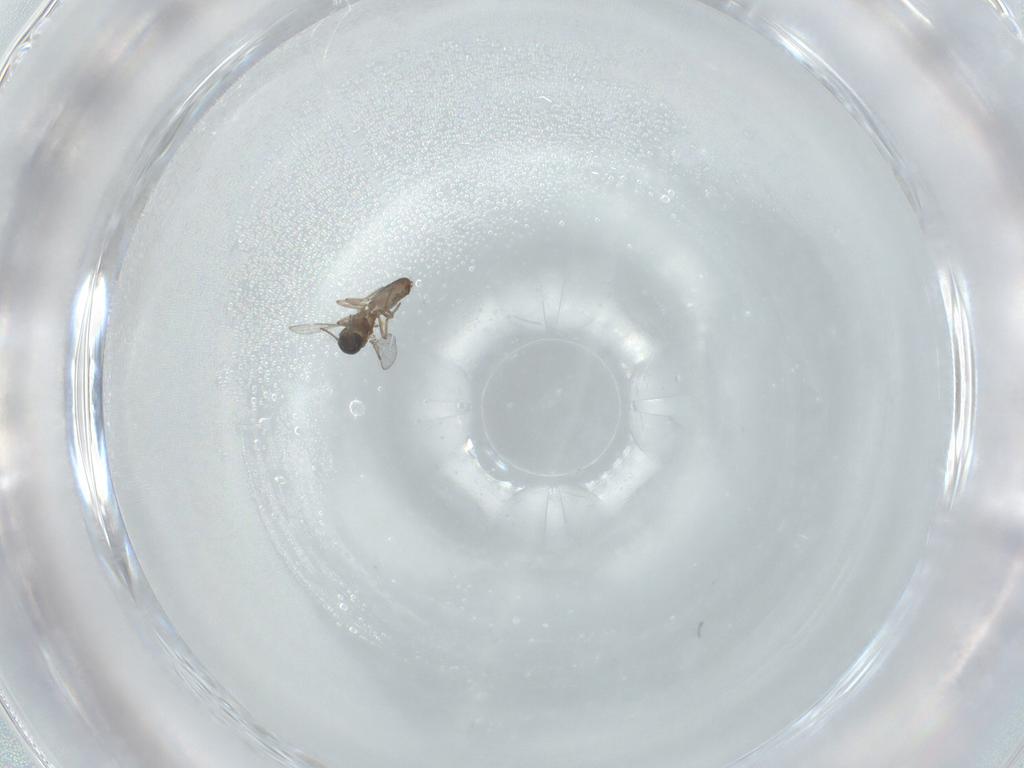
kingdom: Animalia
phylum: Arthropoda
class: Insecta
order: Diptera
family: Ceratopogonidae
